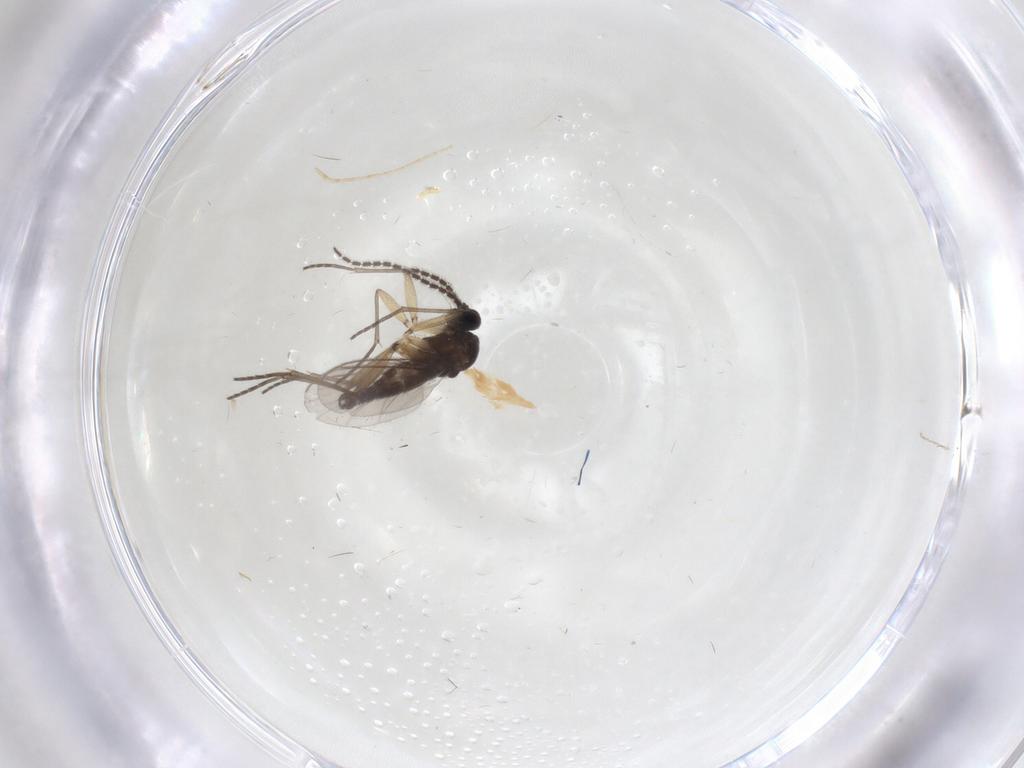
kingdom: Animalia
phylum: Arthropoda
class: Insecta
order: Diptera
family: Sciaridae
